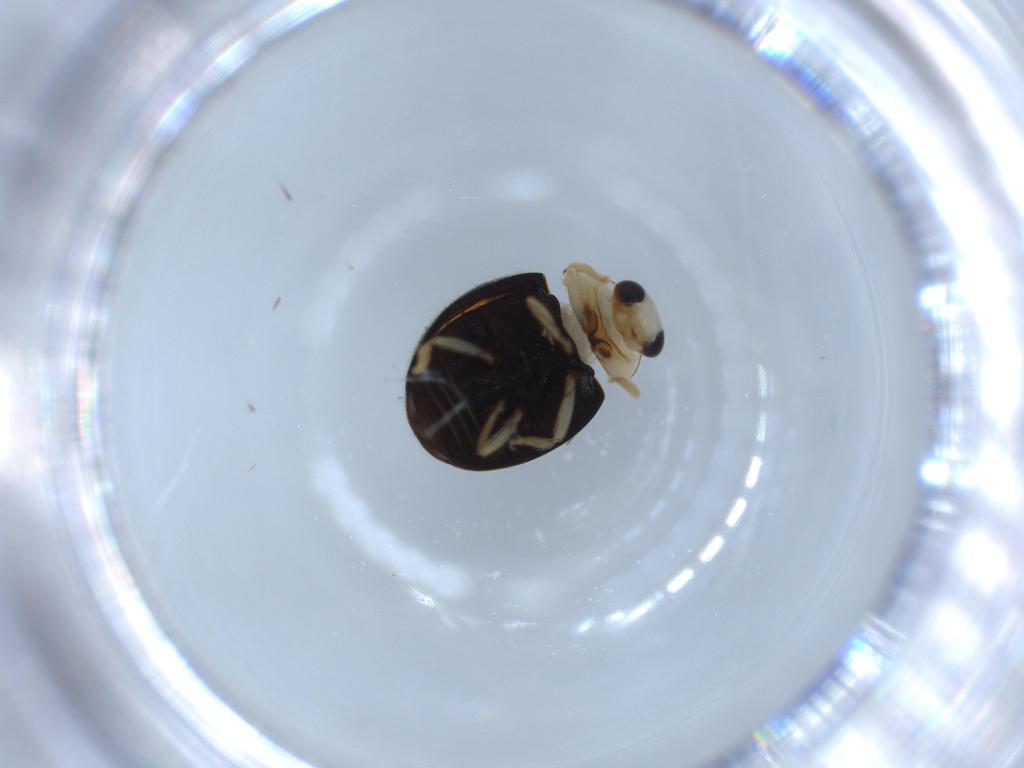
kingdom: Animalia
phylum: Arthropoda
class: Insecta
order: Coleoptera
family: Coccinellidae
